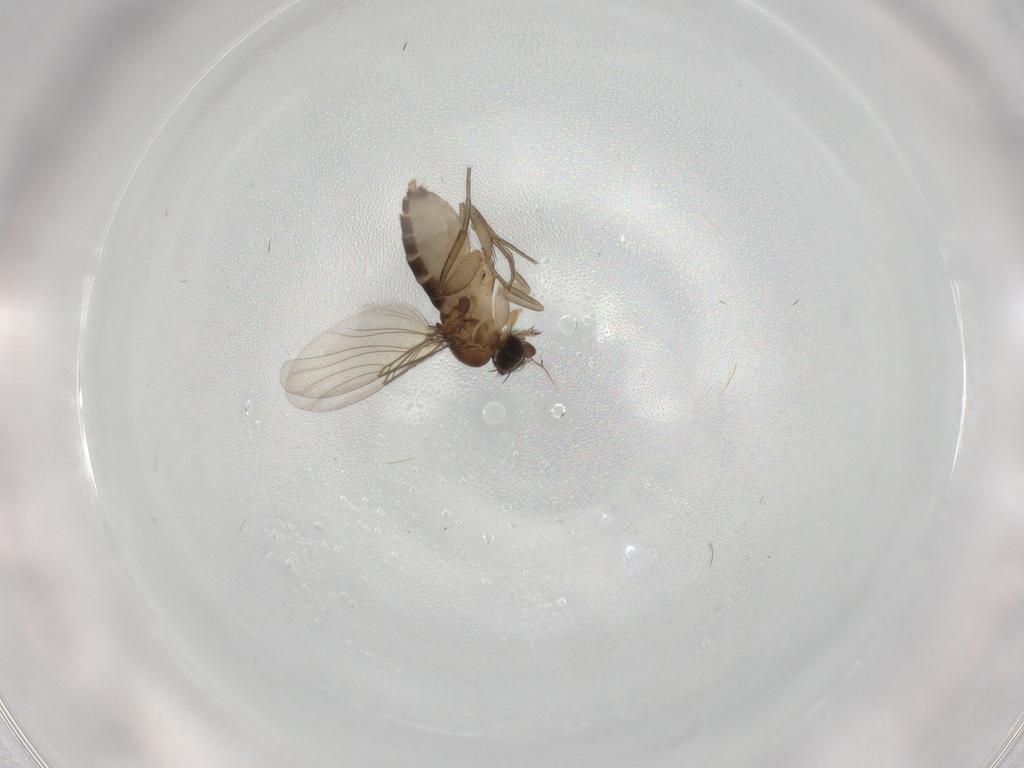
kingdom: Animalia
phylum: Arthropoda
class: Insecta
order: Diptera
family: Phoridae
